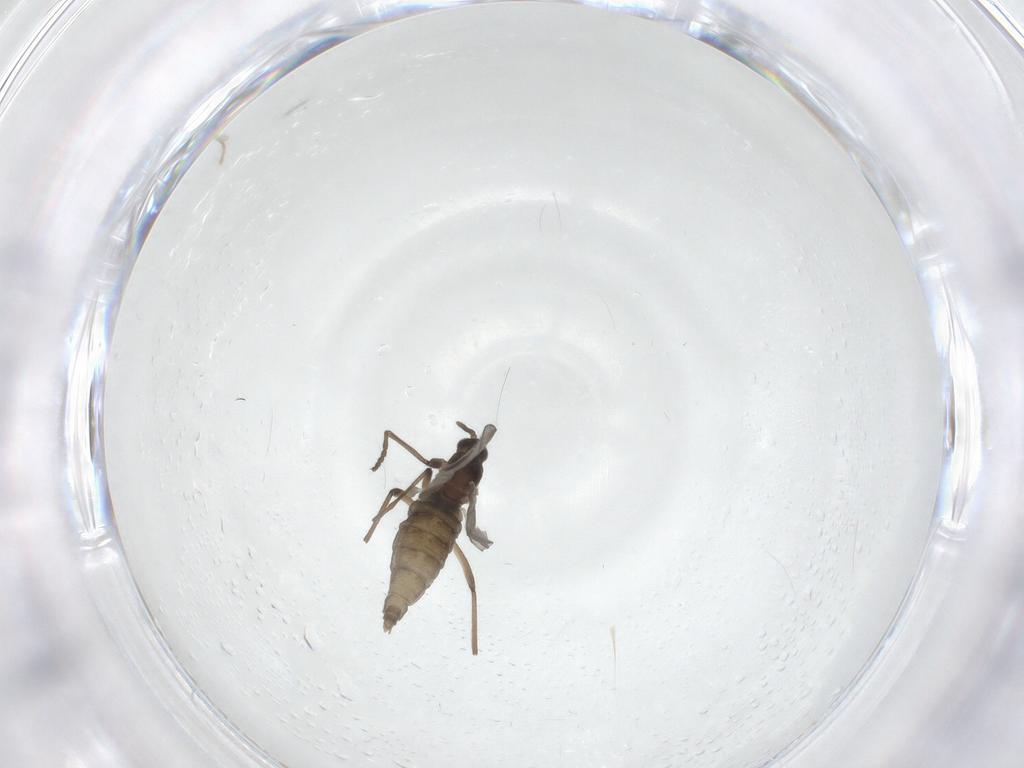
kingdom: Animalia
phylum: Arthropoda
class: Insecta
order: Diptera
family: Cecidomyiidae
